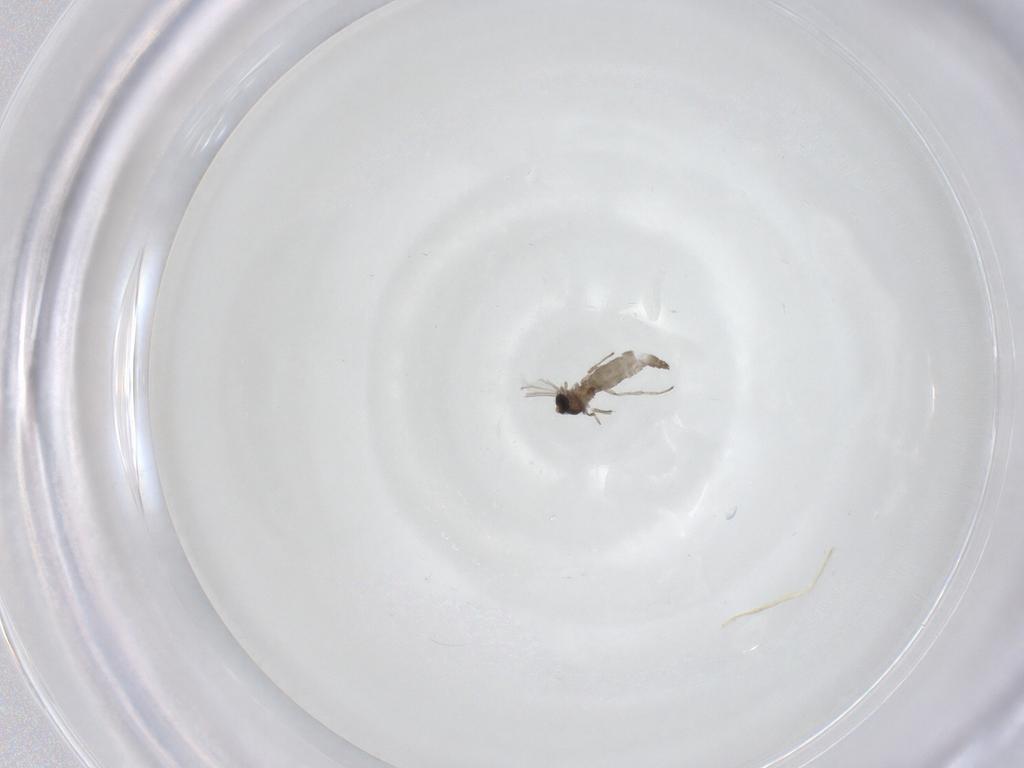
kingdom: Animalia
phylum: Arthropoda
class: Insecta
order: Diptera
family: Cecidomyiidae
